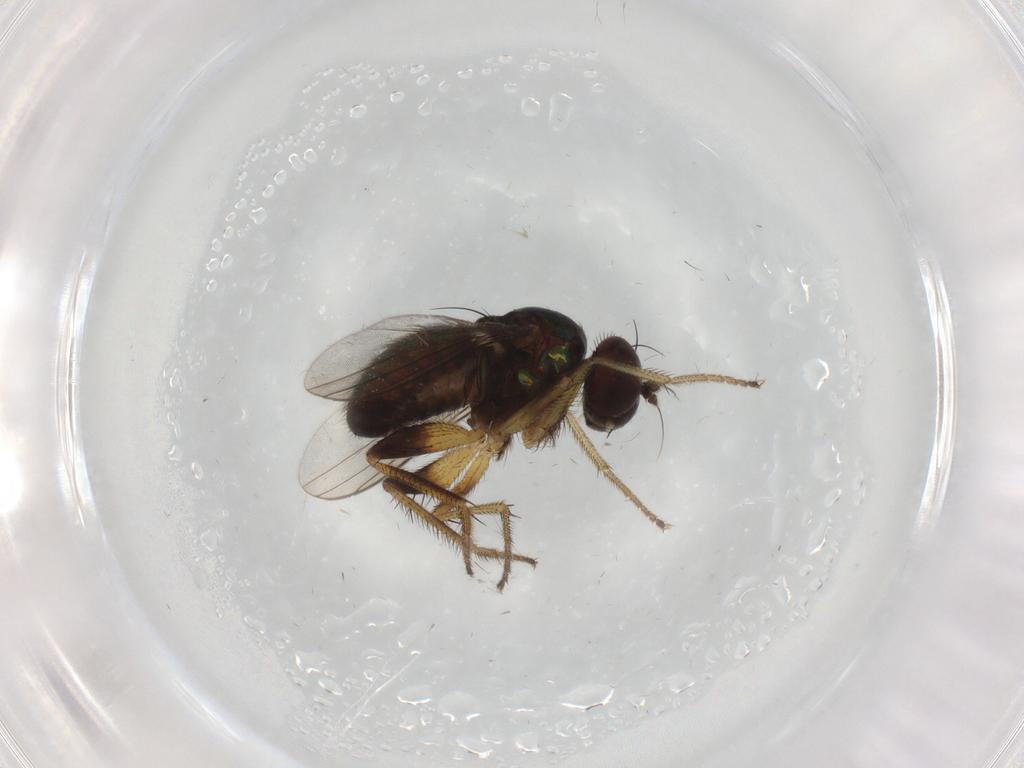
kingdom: Animalia
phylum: Arthropoda
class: Insecta
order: Diptera
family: Dolichopodidae
